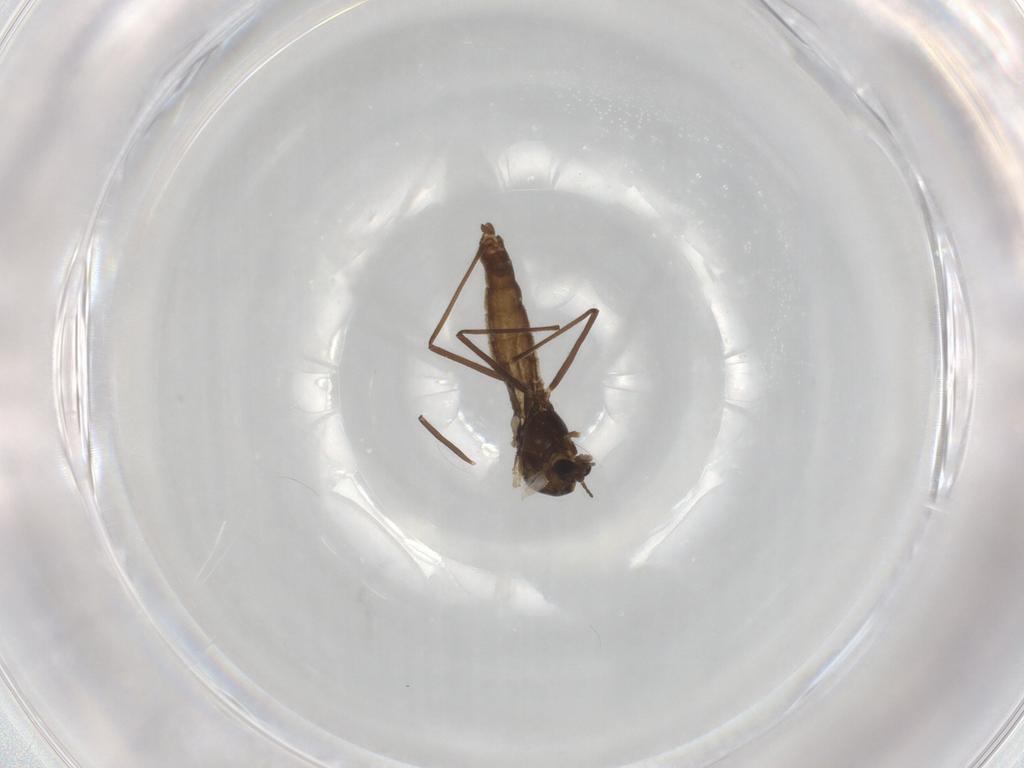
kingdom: Animalia
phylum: Arthropoda
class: Insecta
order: Diptera
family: Chironomidae
